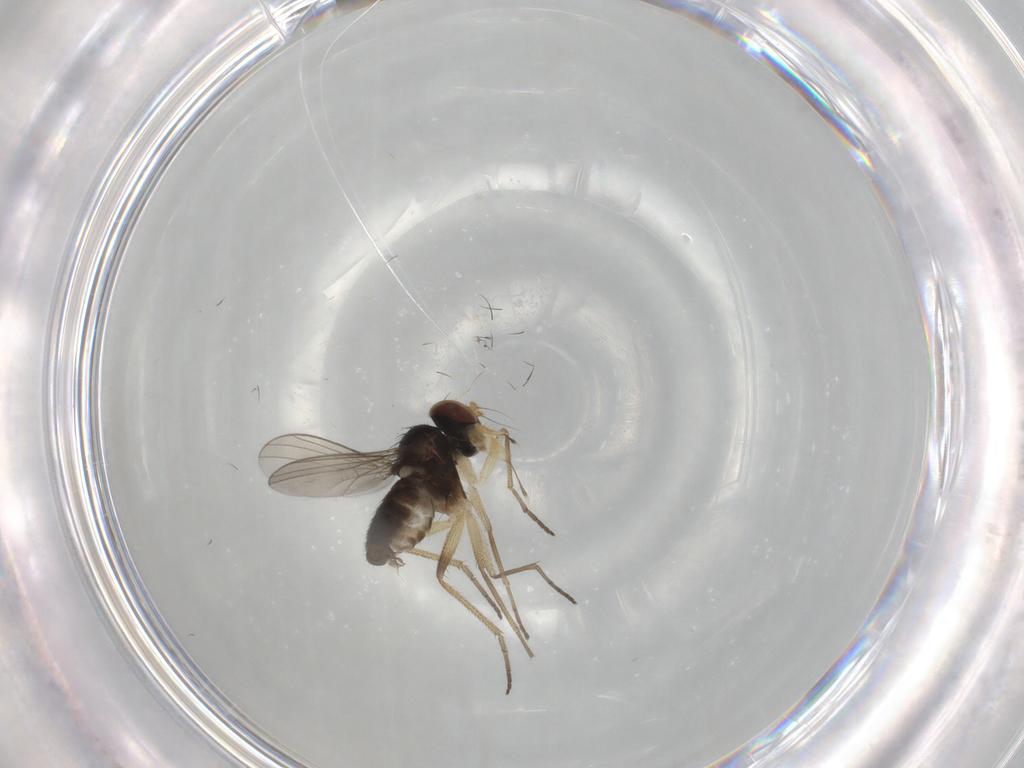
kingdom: Animalia
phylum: Arthropoda
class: Insecta
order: Diptera
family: Dolichopodidae
